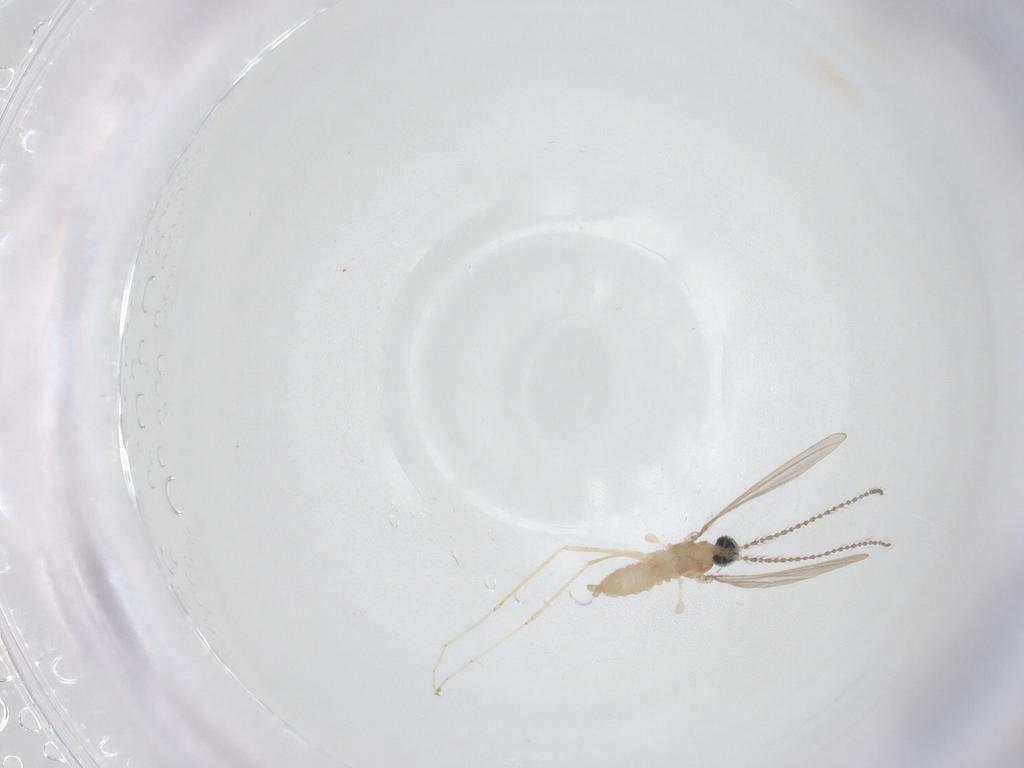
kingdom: Animalia
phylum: Arthropoda
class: Insecta
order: Diptera
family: Cecidomyiidae
